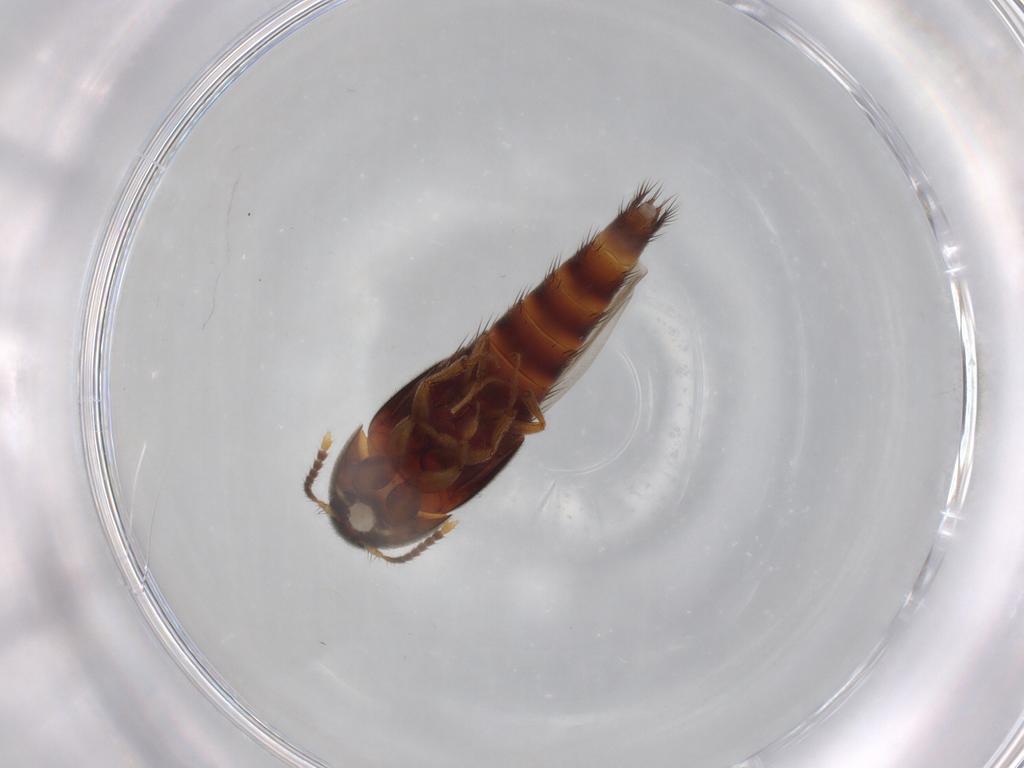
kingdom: Animalia
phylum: Arthropoda
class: Insecta
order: Coleoptera
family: Staphylinidae
